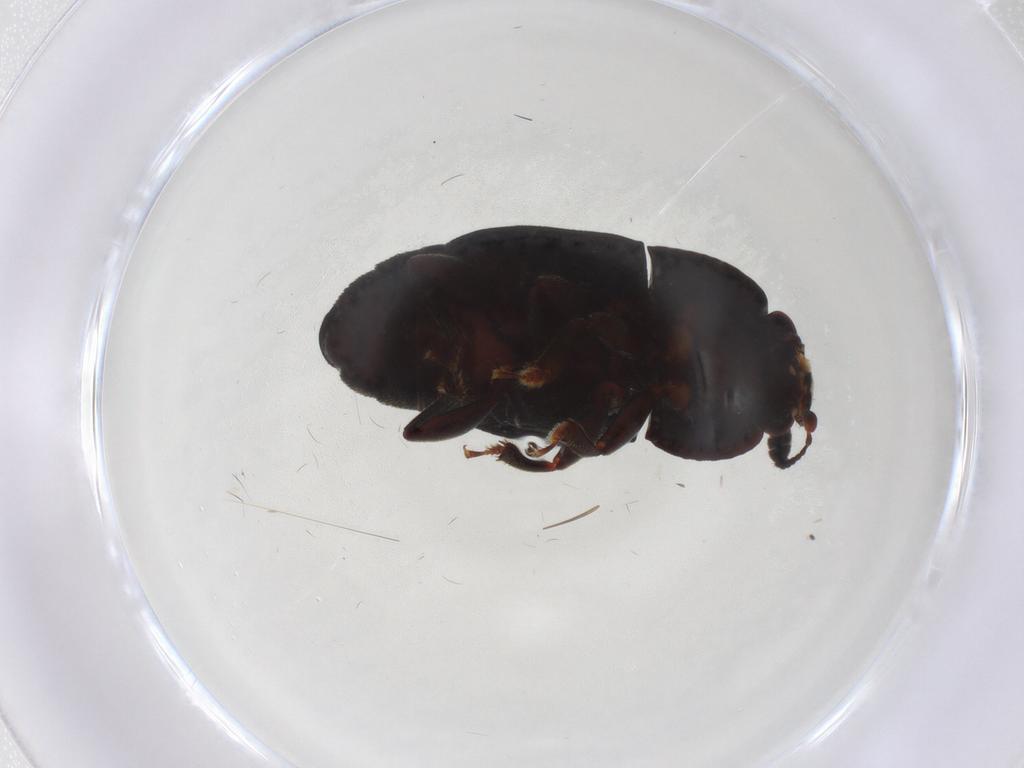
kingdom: Animalia
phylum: Arthropoda
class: Insecta
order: Coleoptera
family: Nitidulidae
